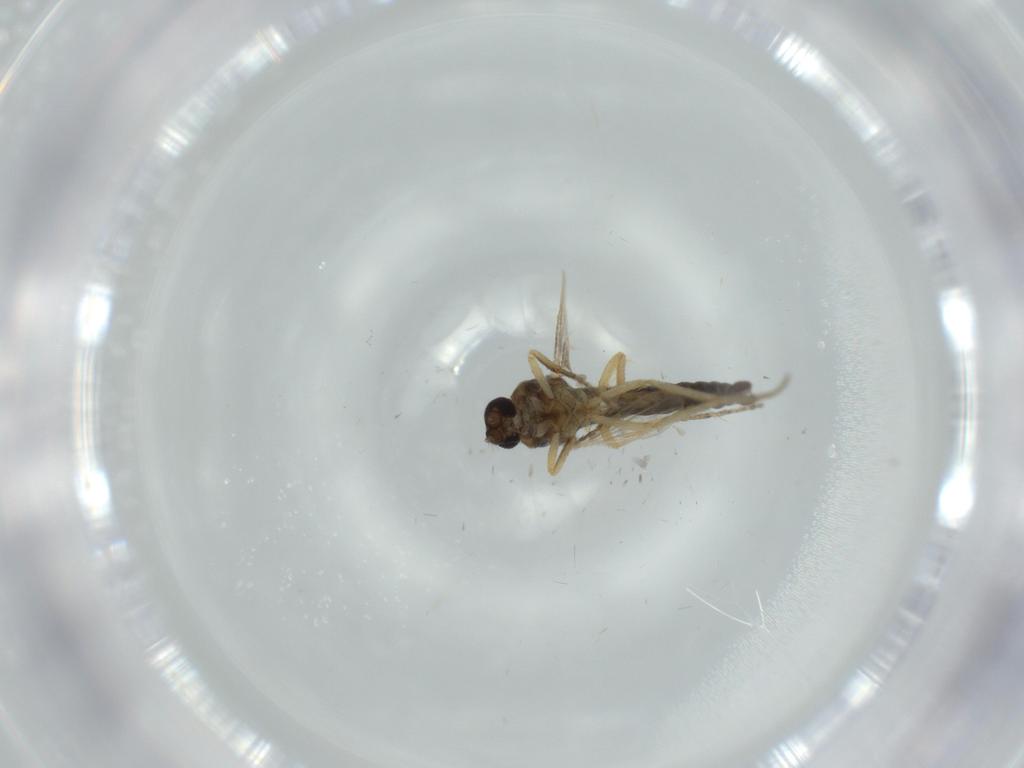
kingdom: Animalia
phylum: Arthropoda
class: Insecta
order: Diptera
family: Ceratopogonidae
